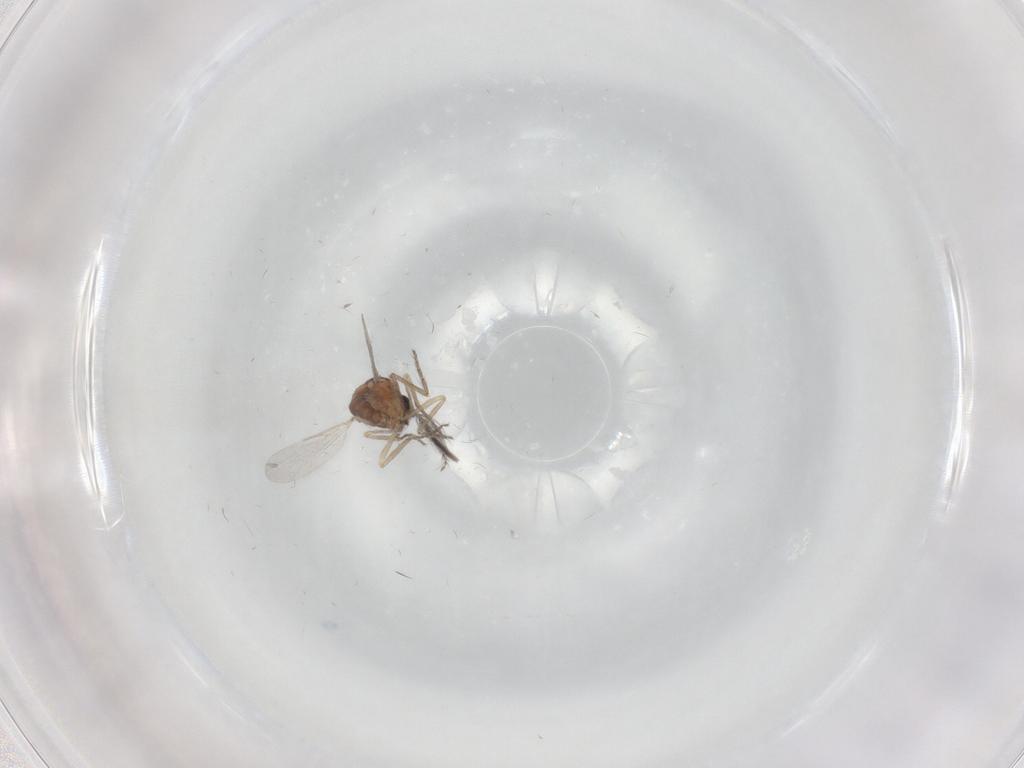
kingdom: Animalia
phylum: Arthropoda
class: Insecta
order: Diptera
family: Ceratopogonidae
